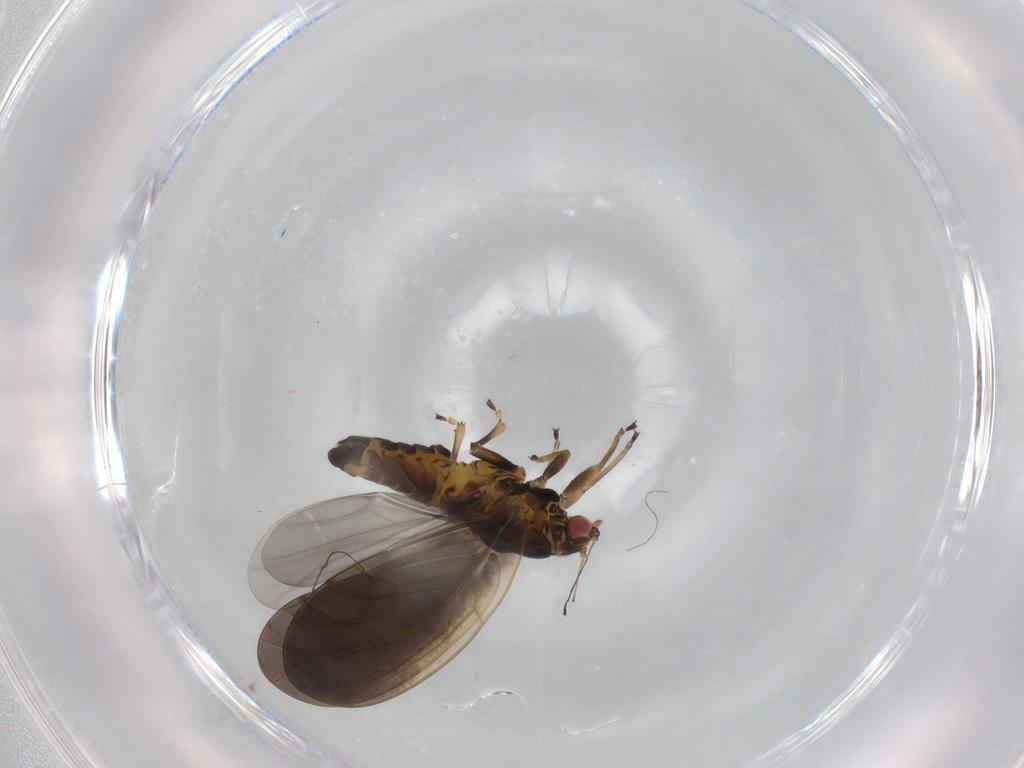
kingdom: Animalia
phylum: Arthropoda
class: Insecta
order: Hemiptera
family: Triozidae
